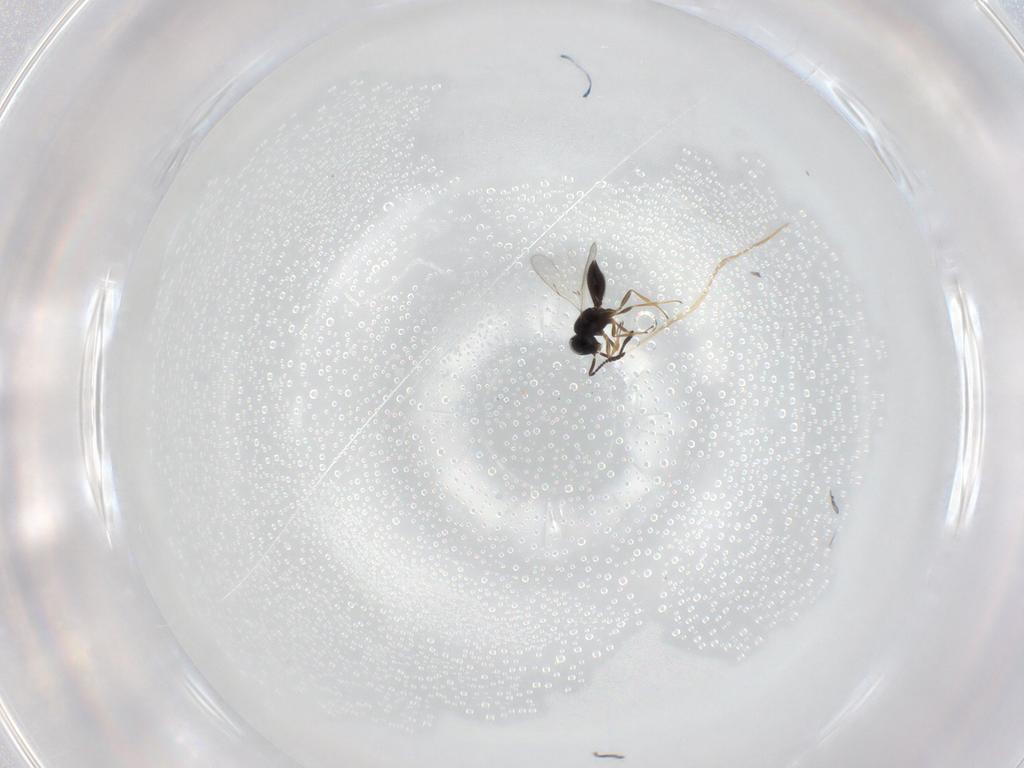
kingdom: Animalia
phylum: Arthropoda
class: Insecta
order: Hymenoptera
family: Scelionidae
